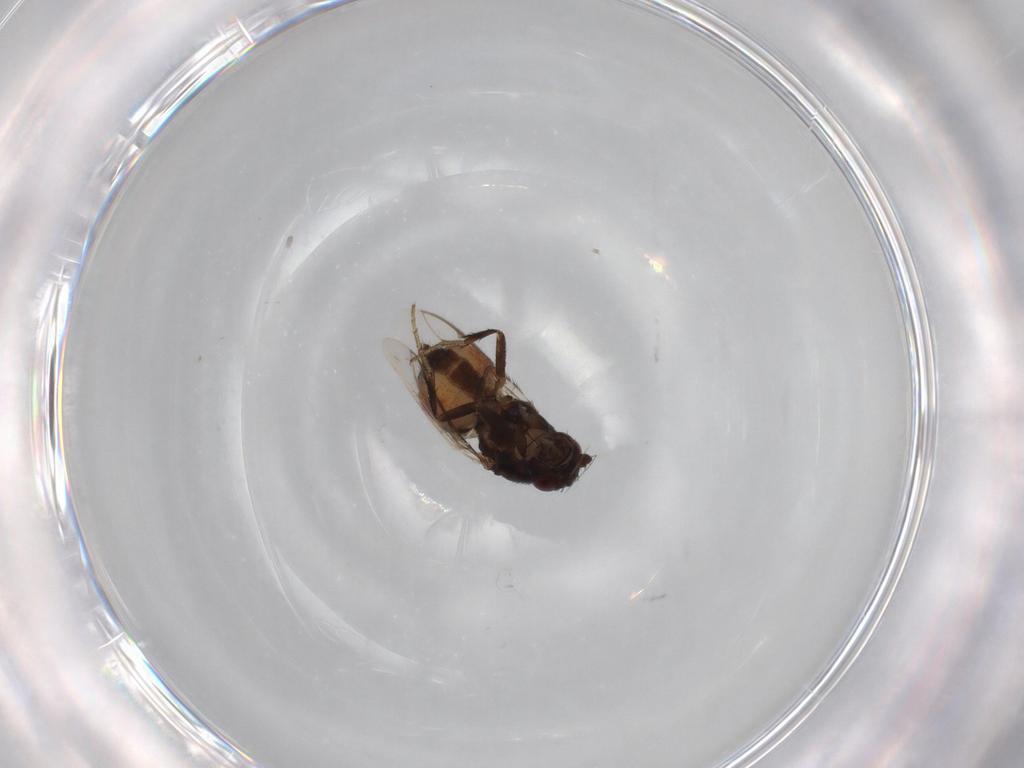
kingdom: Animalia
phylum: Arthropoda
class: Insecta
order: Diptera
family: Sphaeroceridae
